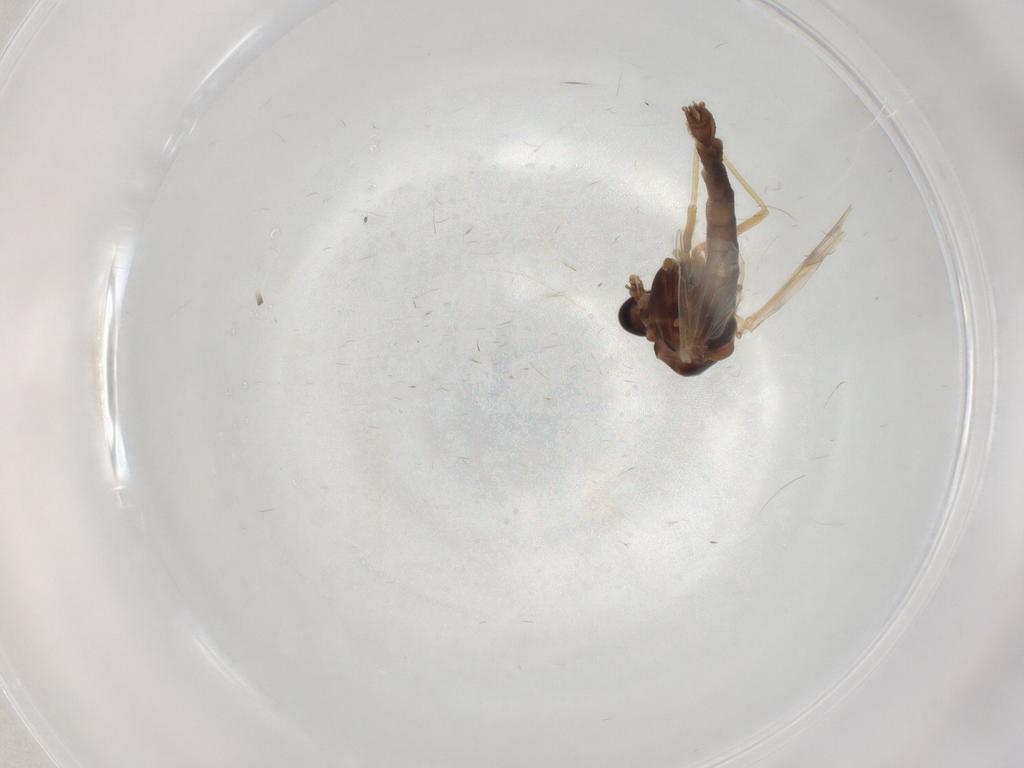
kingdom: Animalia
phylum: Arthropoda
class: Insecta
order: Diptera
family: Chironomidae
